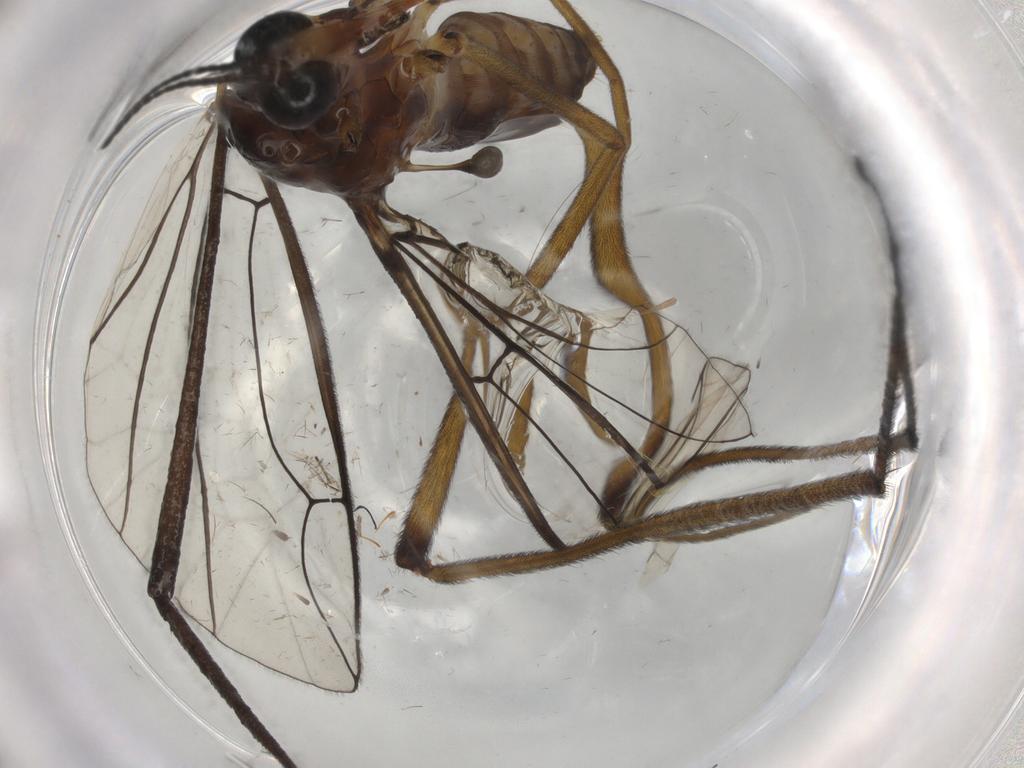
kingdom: Animalia
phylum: Arthropoda
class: Insecta
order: Diptera
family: Blephariceridae
